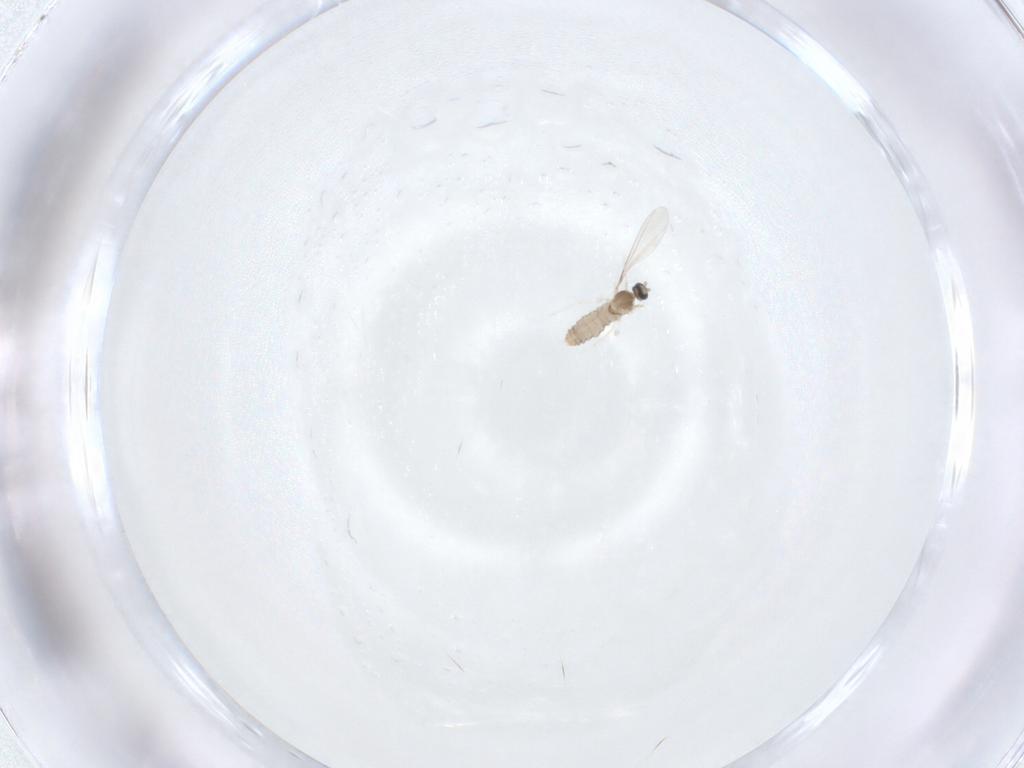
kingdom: Animalia
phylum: Arthropoda
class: Insecta
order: Diptera
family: Cecidomyiidae
